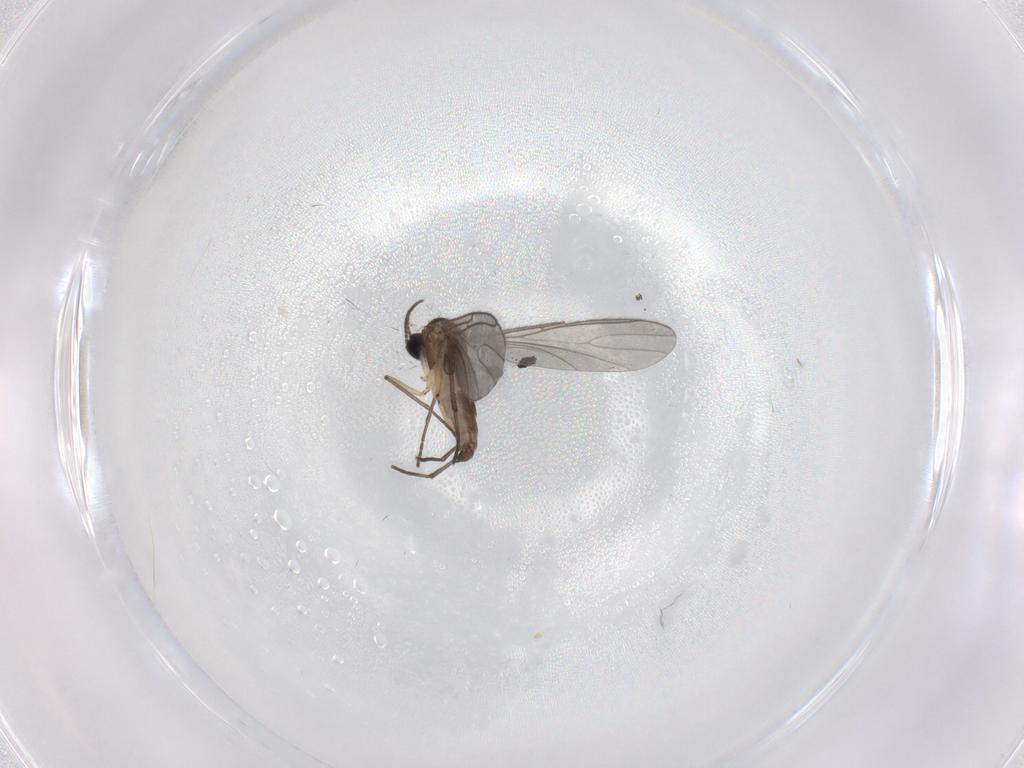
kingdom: Animalia
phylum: Arthropoda
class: Insecta
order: Diptera
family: Sciaridae
